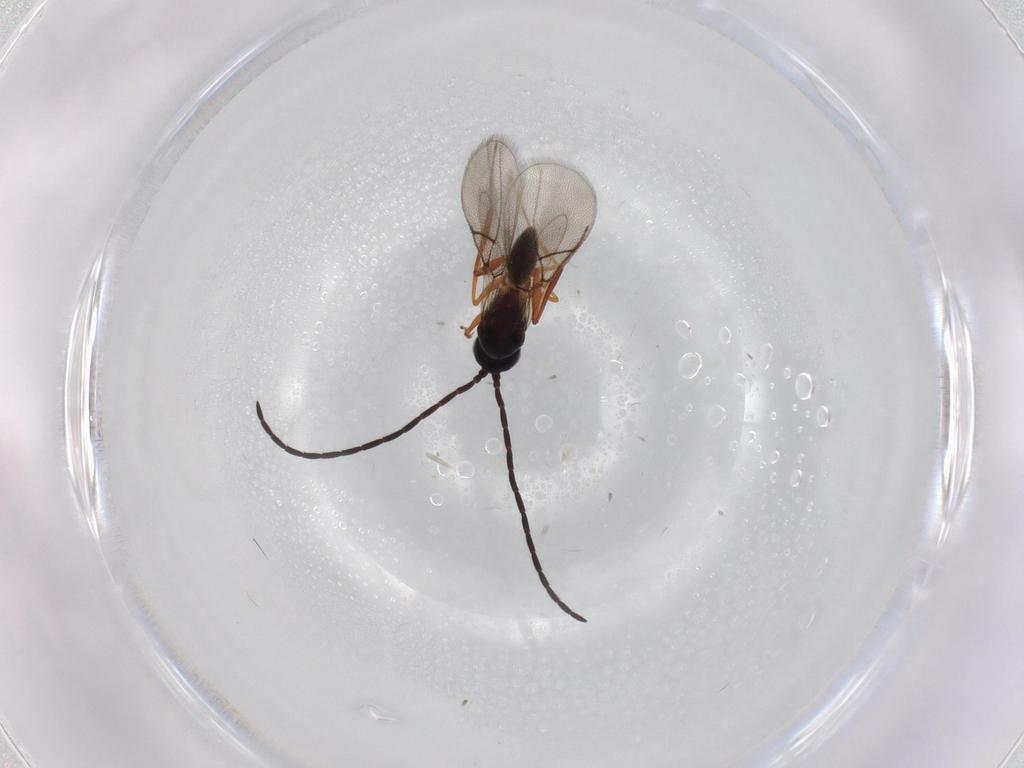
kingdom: Animalia
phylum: Arthropoda
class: Insecta
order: Hymenoptera
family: Figitidae
